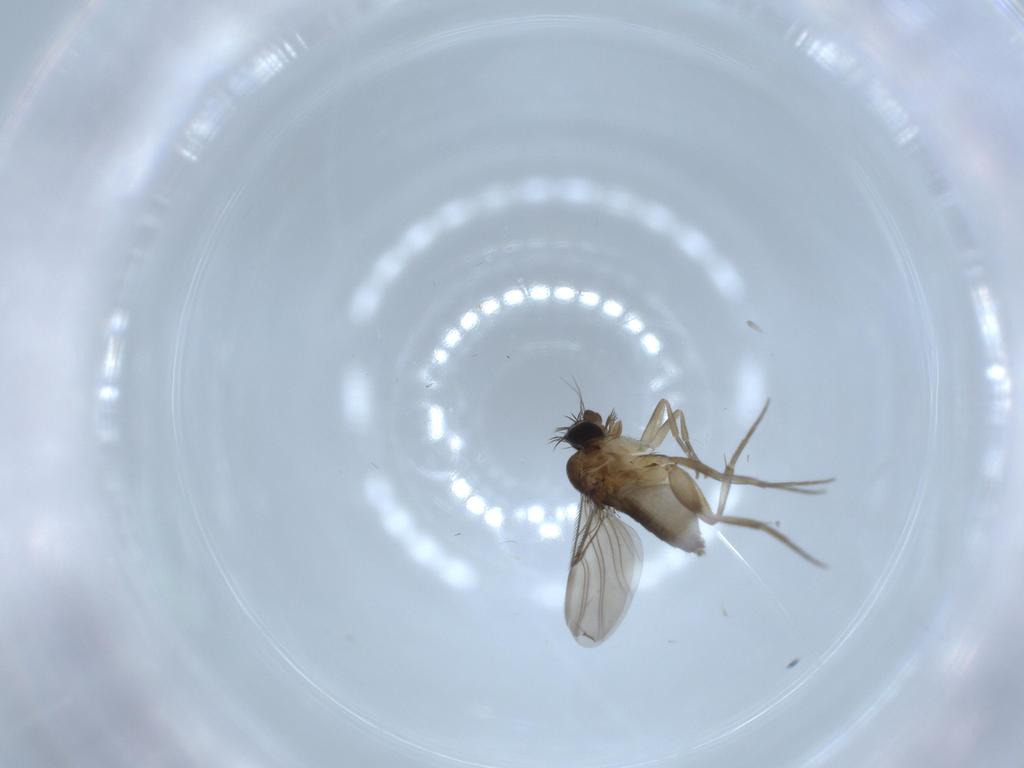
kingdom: Animalia
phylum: Arthropoda
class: Insecta
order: Diptera
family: Phoridae
